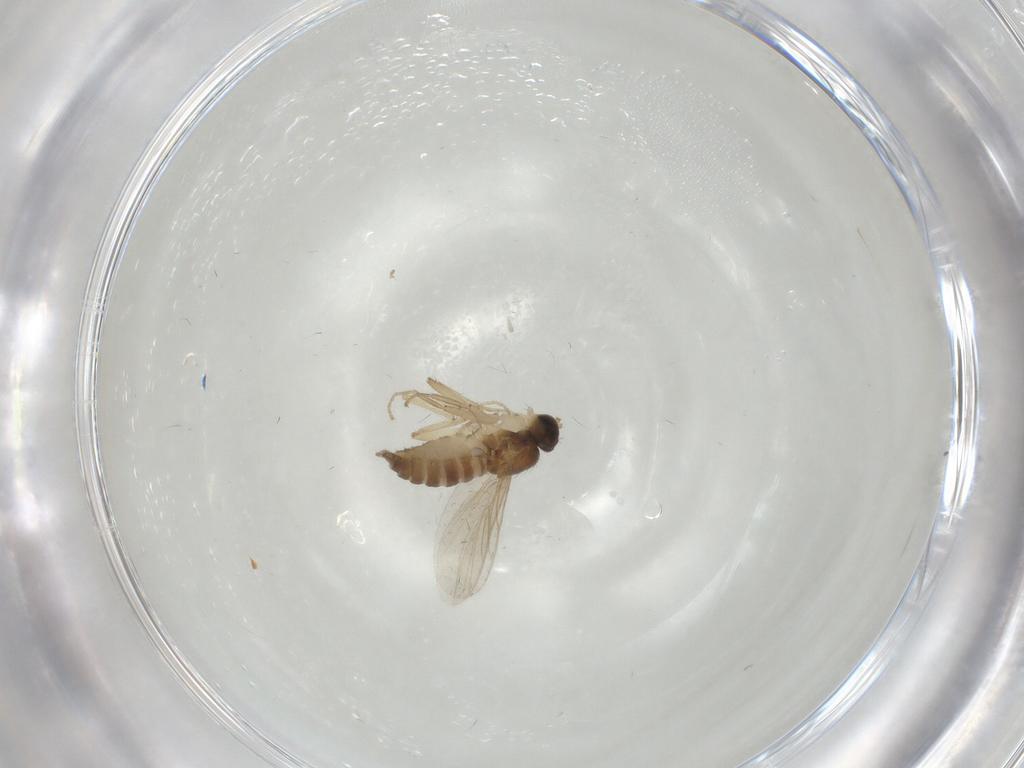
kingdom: Animalia
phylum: Arthropoda
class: Insecta
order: Diptera
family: Hybotidae
